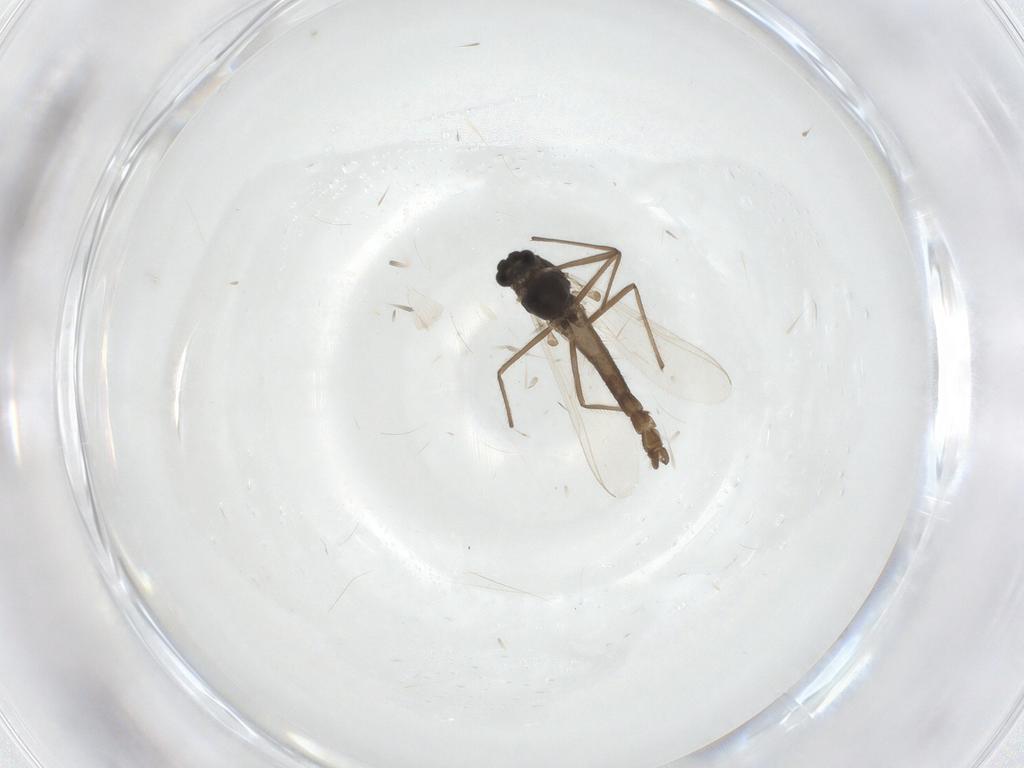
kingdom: Animalia
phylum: Arthropoda
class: Insecta
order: Diptera
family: Chironomidae
